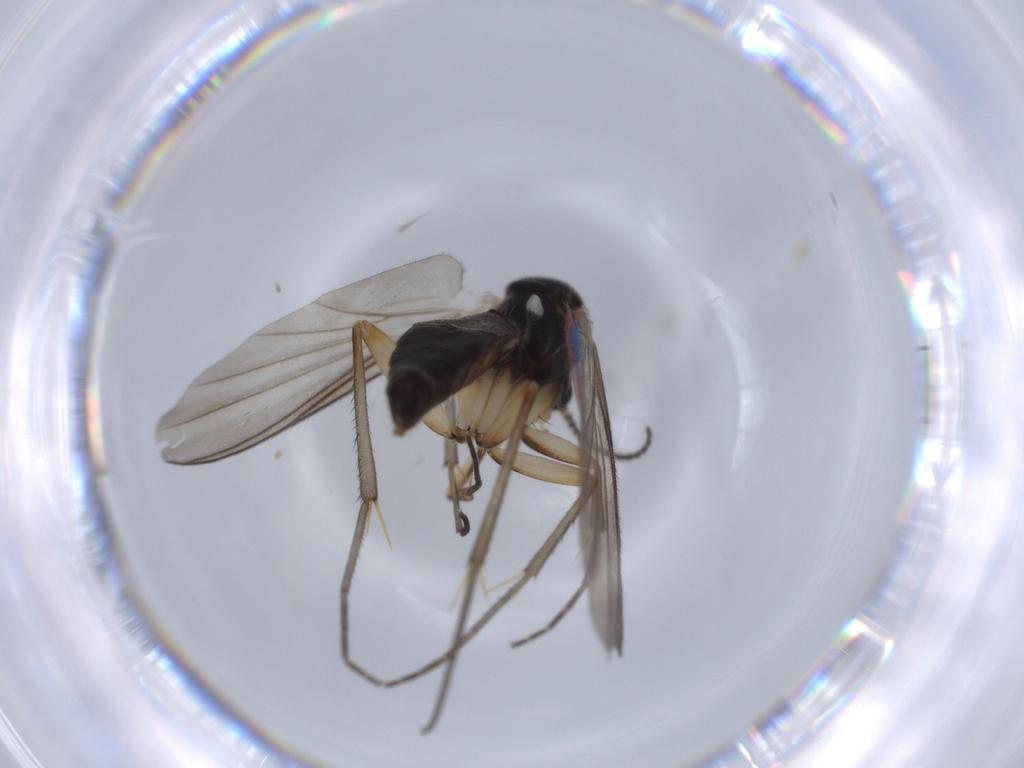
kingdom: Animalia
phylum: Arthropoda
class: Insecta
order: Diptera
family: Mycetophilidae
